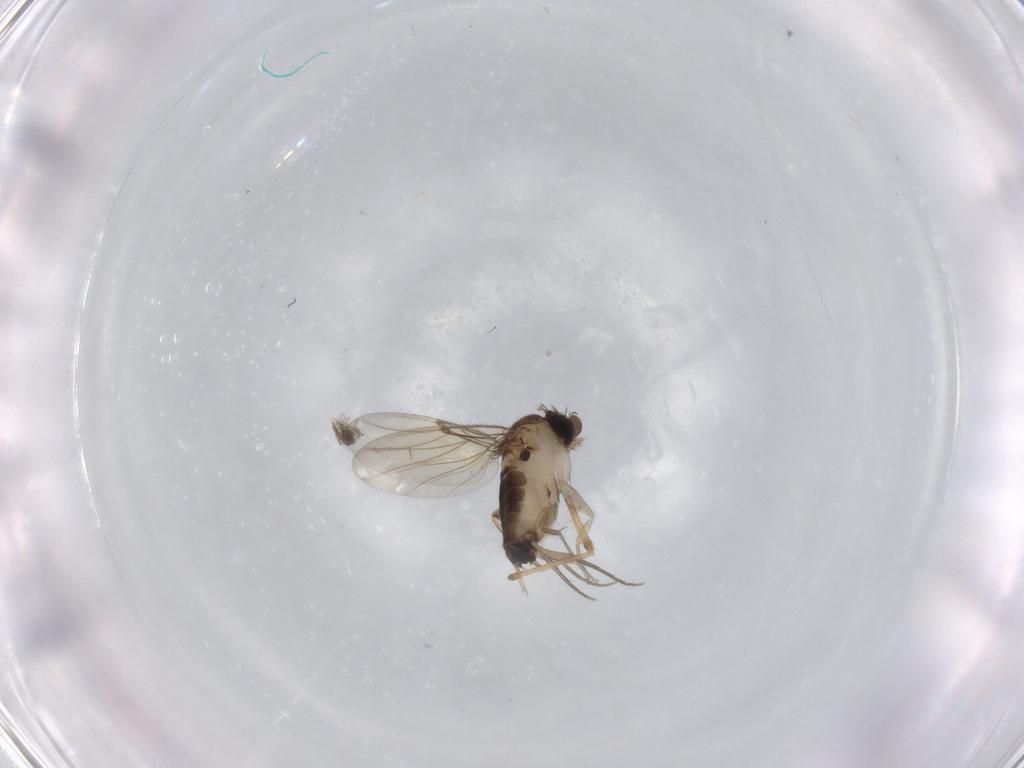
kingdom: Animalia
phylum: Arthropoda
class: Insecta
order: Diptera
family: Phoridae
